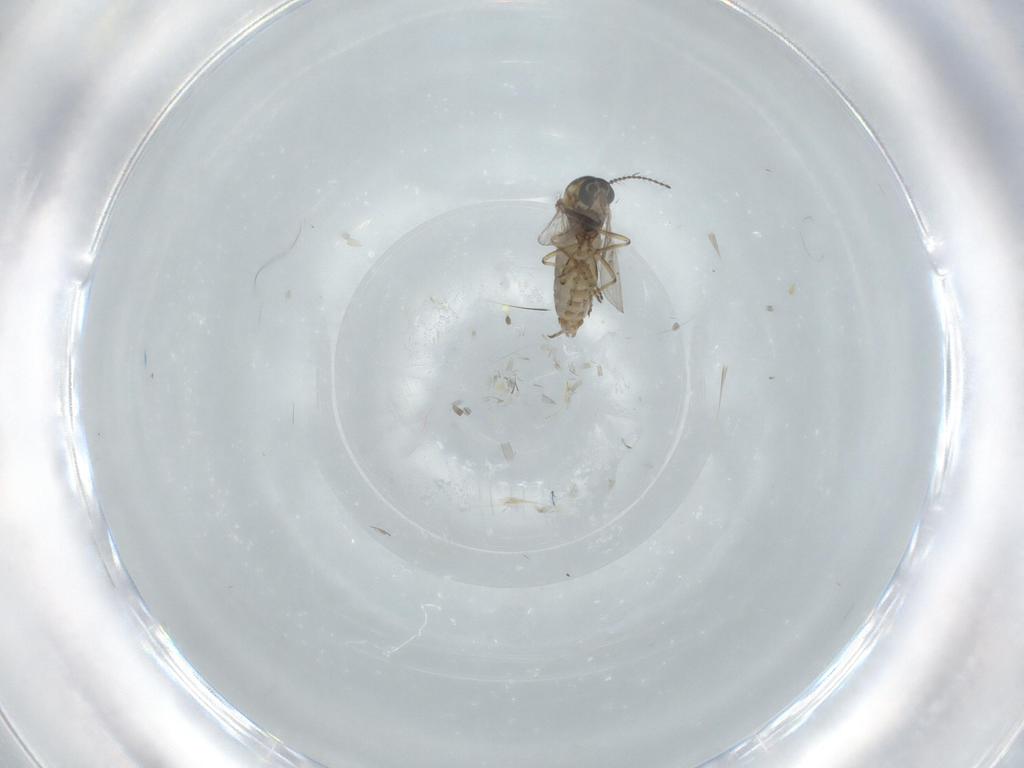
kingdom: Animalia
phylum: Arthropoda
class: Insecta
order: Diptera
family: Ceratopogonidae
